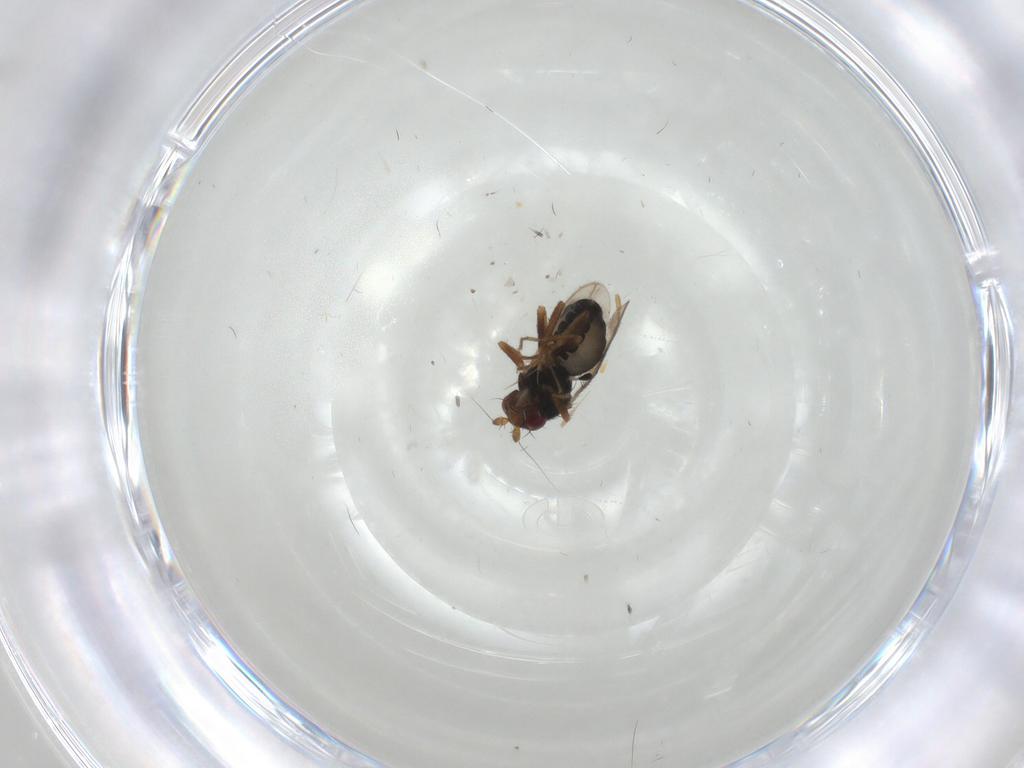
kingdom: Animalia
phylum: Arthropoda
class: Insecta
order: Diptera
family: Sphaeroceridae
